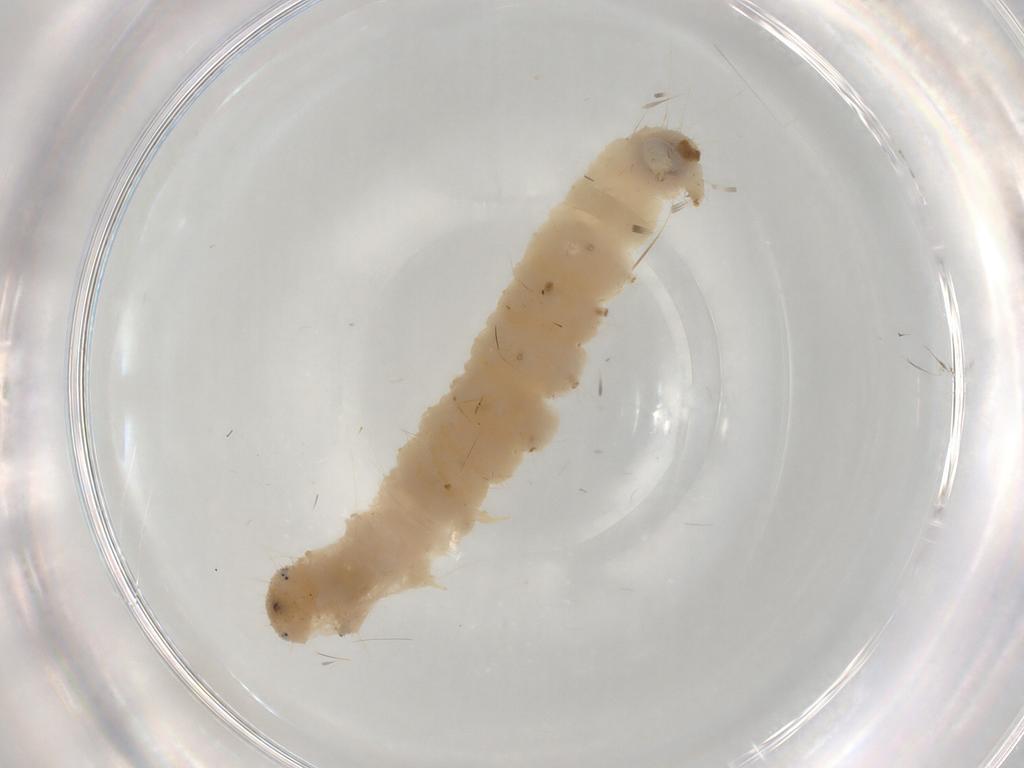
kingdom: Animalia
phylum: Arthropoda
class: Insecta
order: Lepidoptera
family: Crambidae
